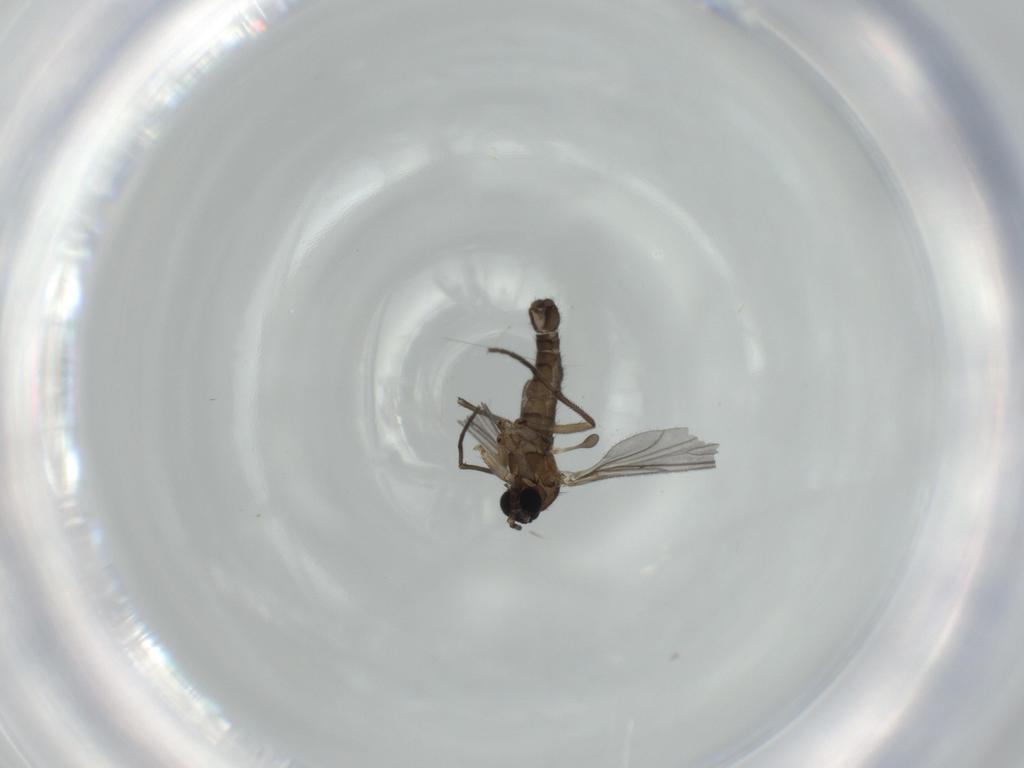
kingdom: Animalia
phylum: Arthropoda
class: Insecta
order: Diptera
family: Sciaridae
